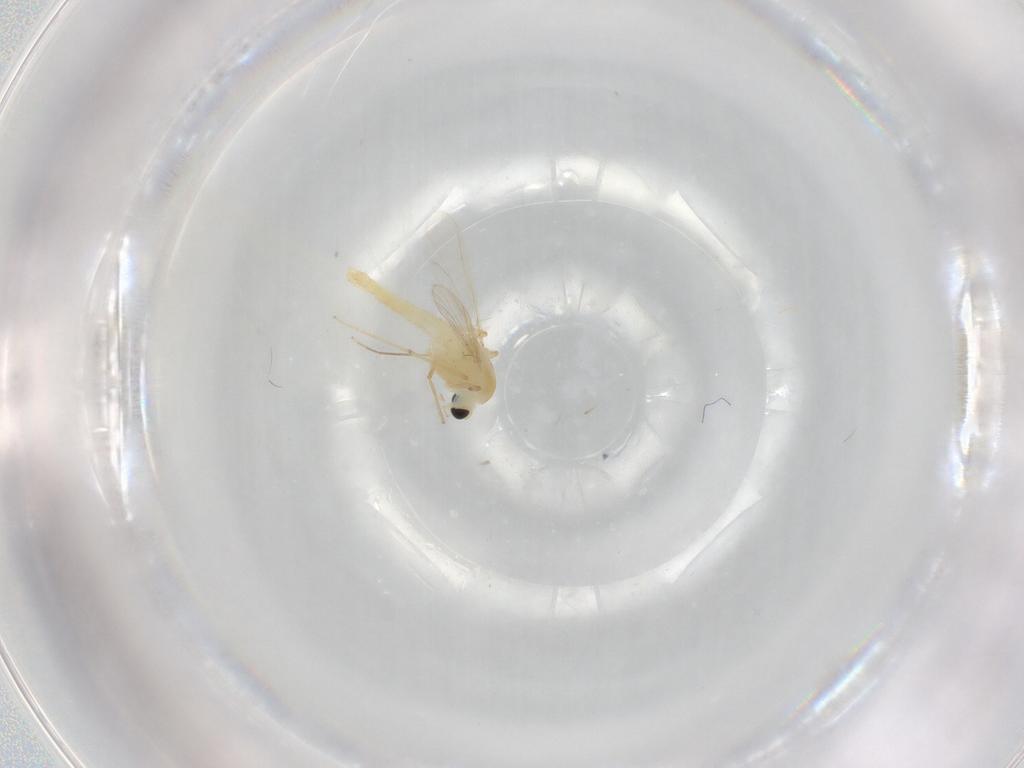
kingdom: Animalia
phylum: Arthropoda
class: Insecta
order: Diptera
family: Chironomidae
